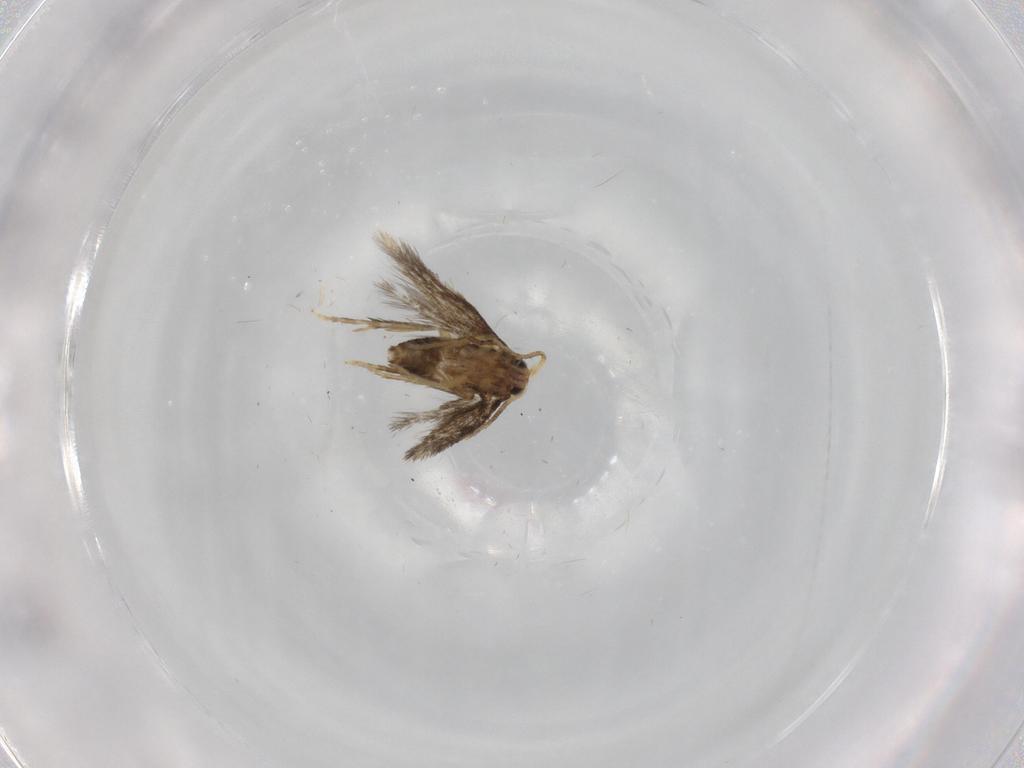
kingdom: Animalia
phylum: Arthropoda
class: Insecta
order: Lepidoptera
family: Copromorphidae
